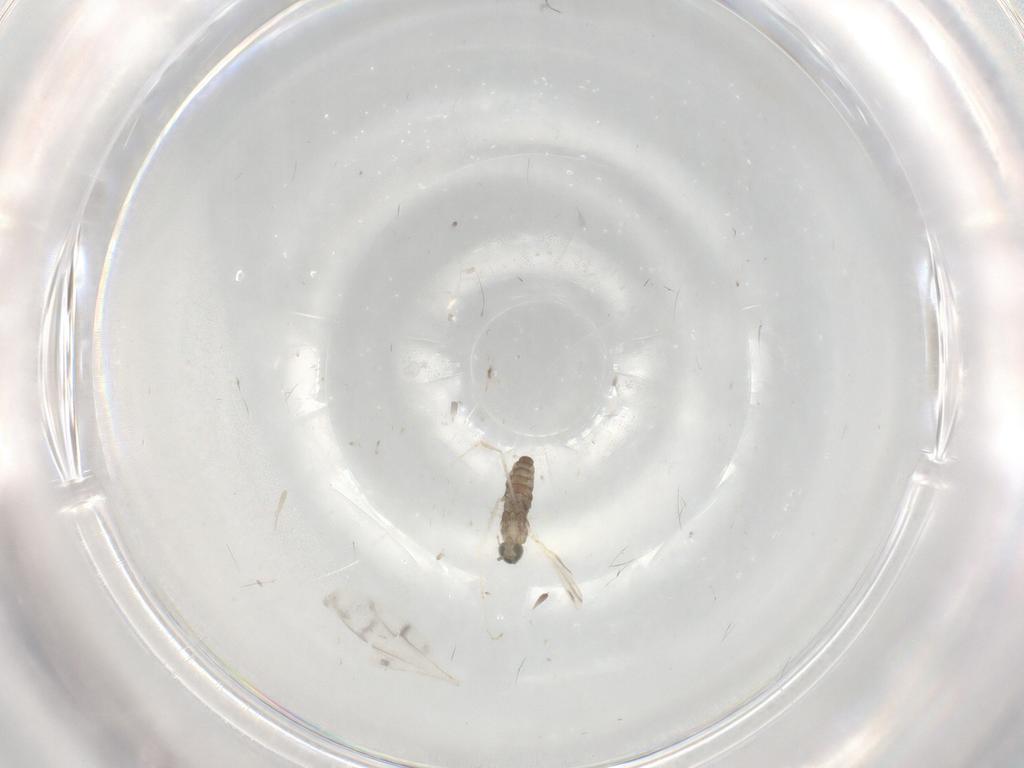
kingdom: Animalia
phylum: Arthropoda
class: Insecta
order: Diptera
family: Cecidomyiidae
